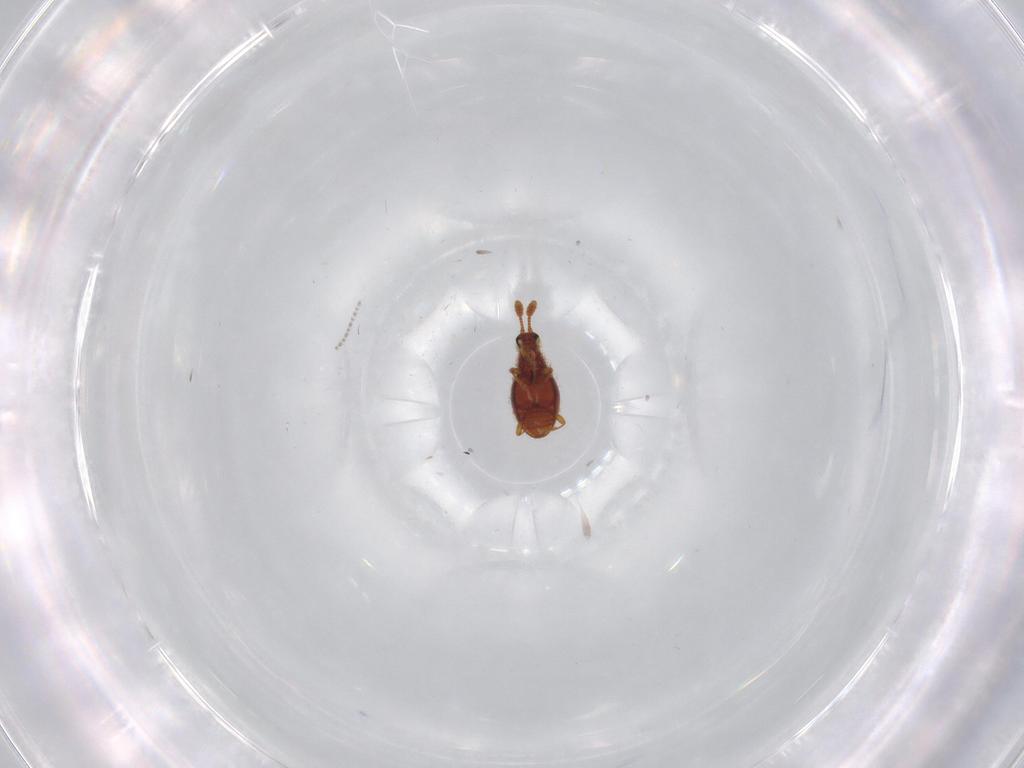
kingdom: Animalia
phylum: Arthropoda
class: Insecta
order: Coleoptera
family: Staphylinidae
